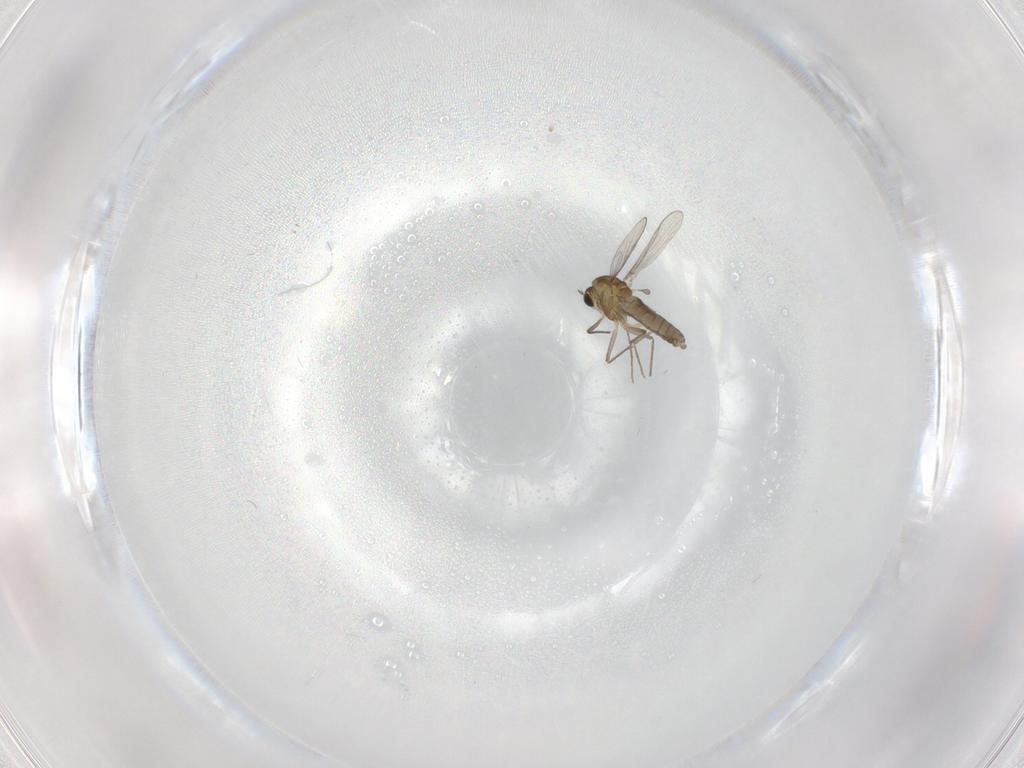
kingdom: Animalia
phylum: Arthropoda
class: Insecta
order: Diptera
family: Chironomidae
